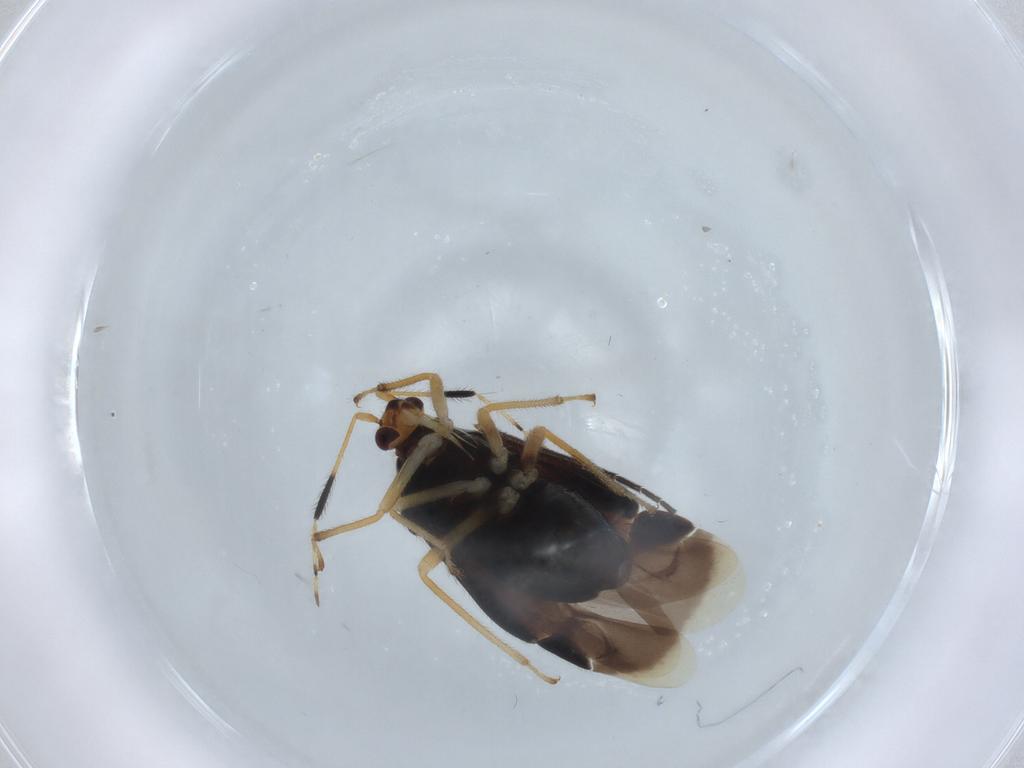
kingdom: Animalia
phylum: Arthropoda
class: Insecta
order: Hemiptera
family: Miridae
